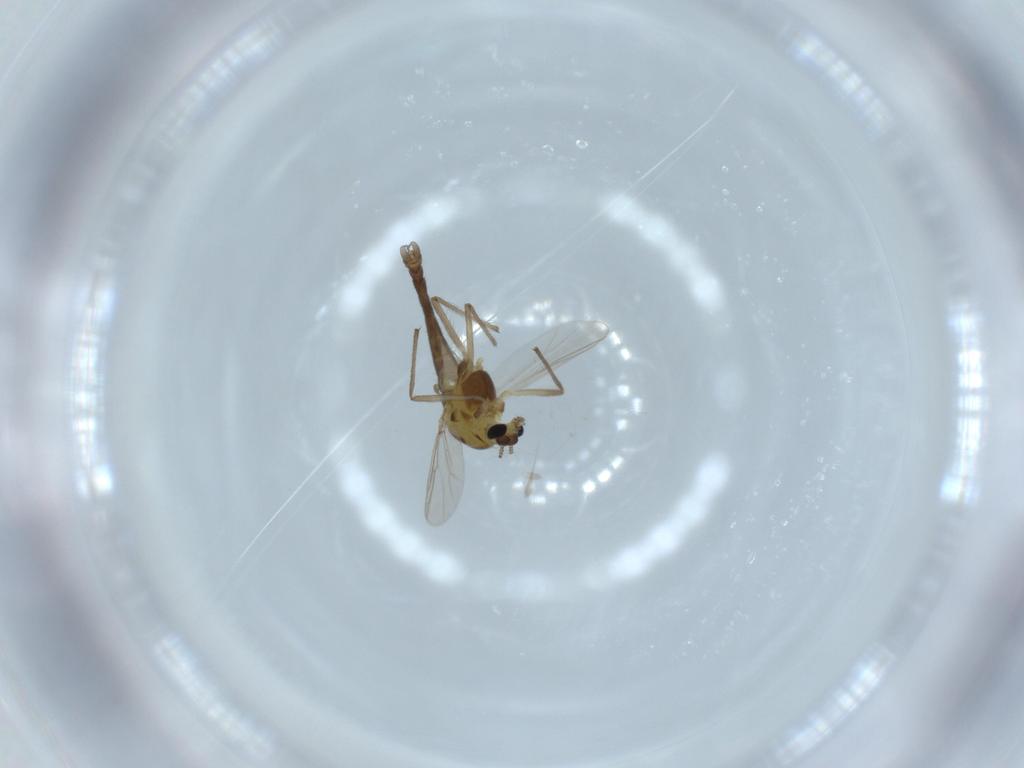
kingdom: Animalia
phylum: Arthropoda
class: Insecta
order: Diptera
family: Chironomidae
